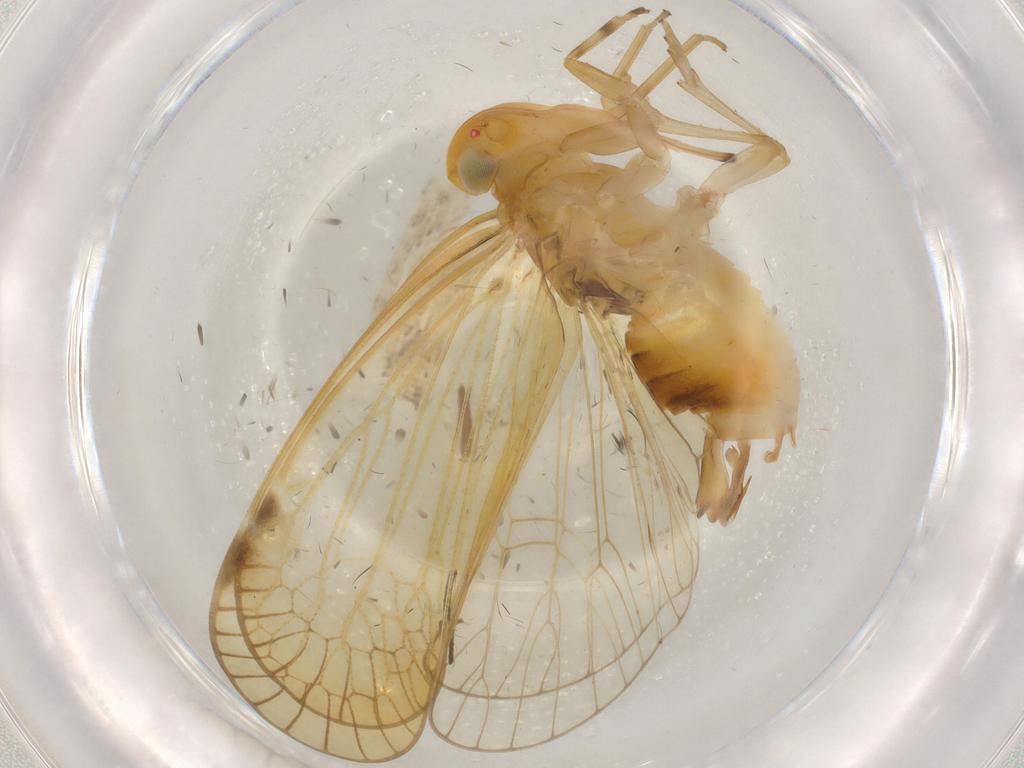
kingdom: Animalia
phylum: Arthropoda
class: Insecta
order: Hemiptera
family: Cixiidae
